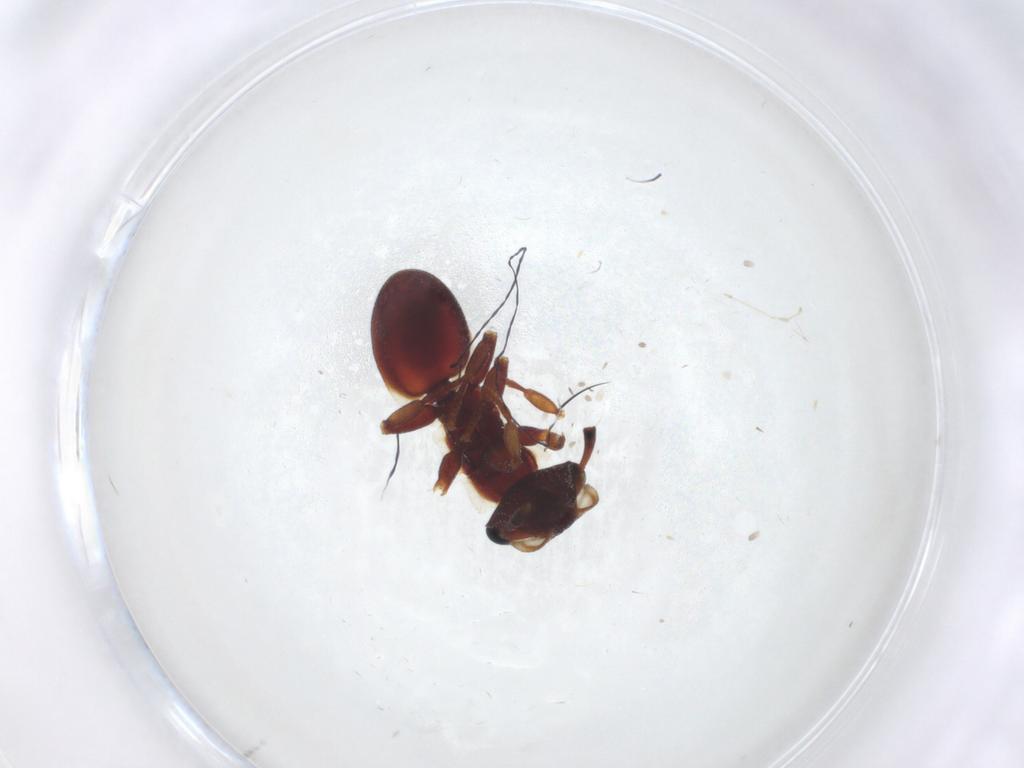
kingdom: Animalia
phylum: Arthropoda
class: Insecta
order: Hymenoptera
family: Formicidae
